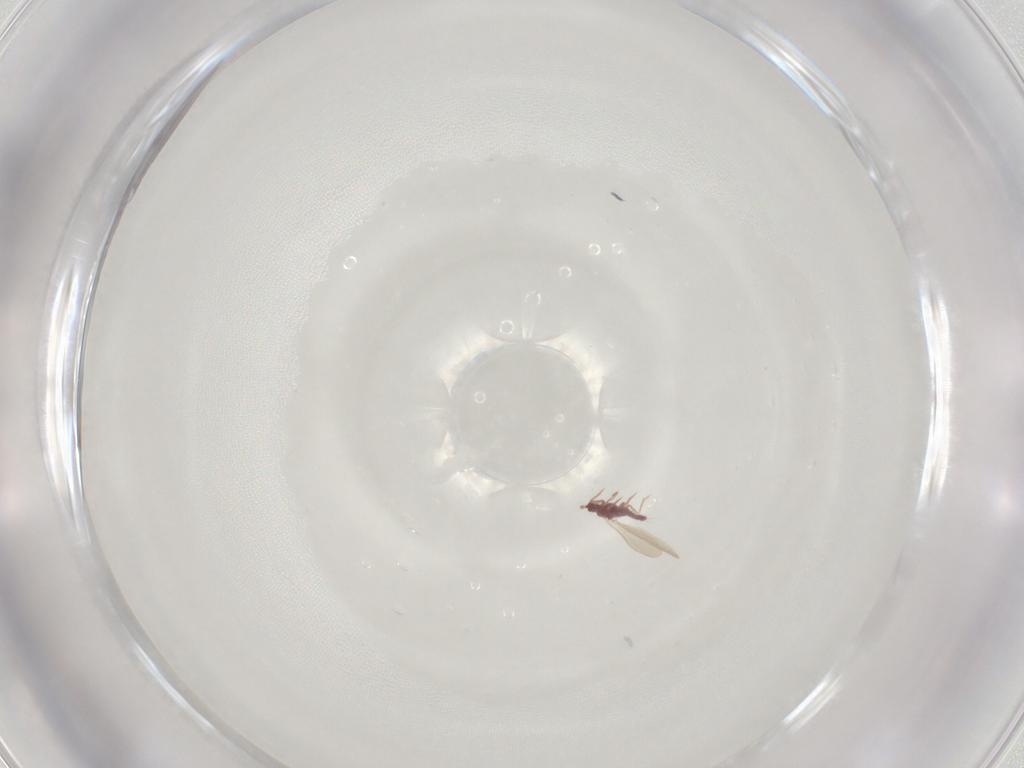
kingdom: Animalia
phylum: Arthropoda
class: Insecta
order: Hemiptera
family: Pseudococcidae
